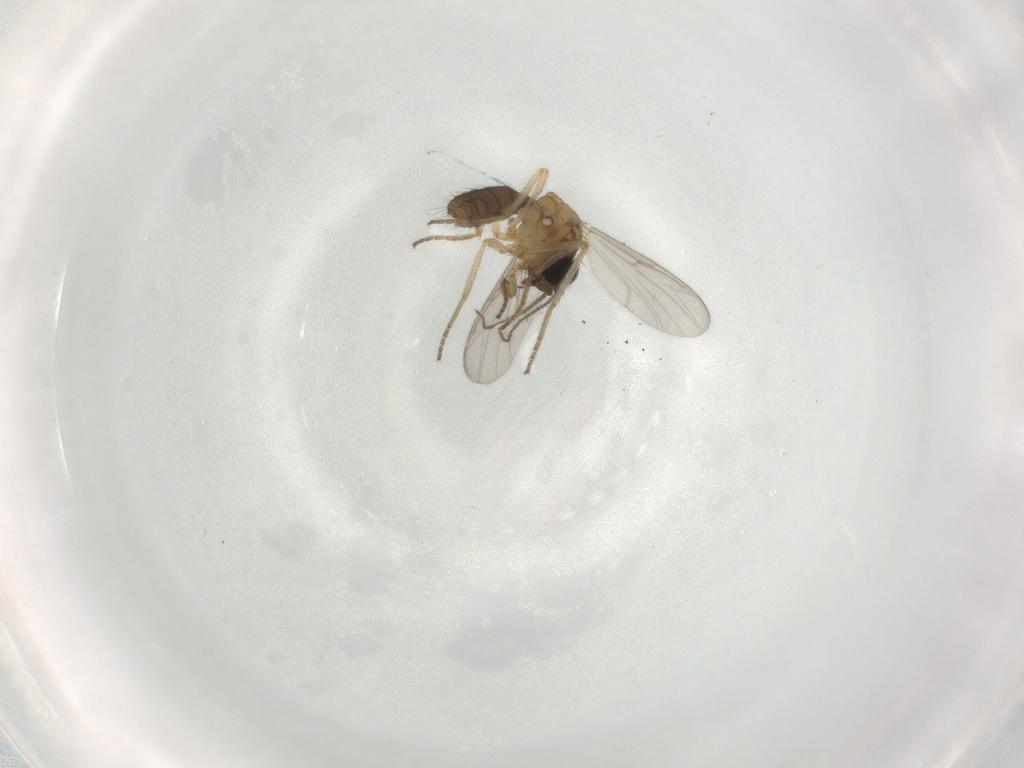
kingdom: Animalia
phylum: Arthropoda
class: Insecta
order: Diptera
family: Ceratopogonidae
